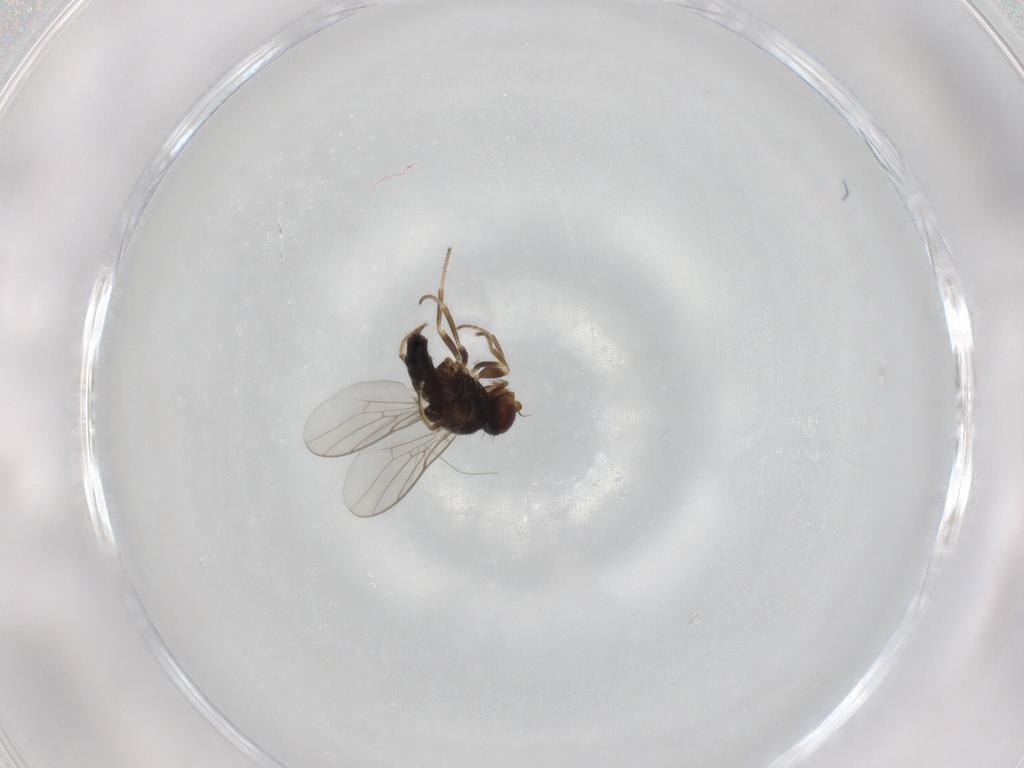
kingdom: Animalia
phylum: Arthropoda
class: Insecta
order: Diptera
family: Chloropidae
